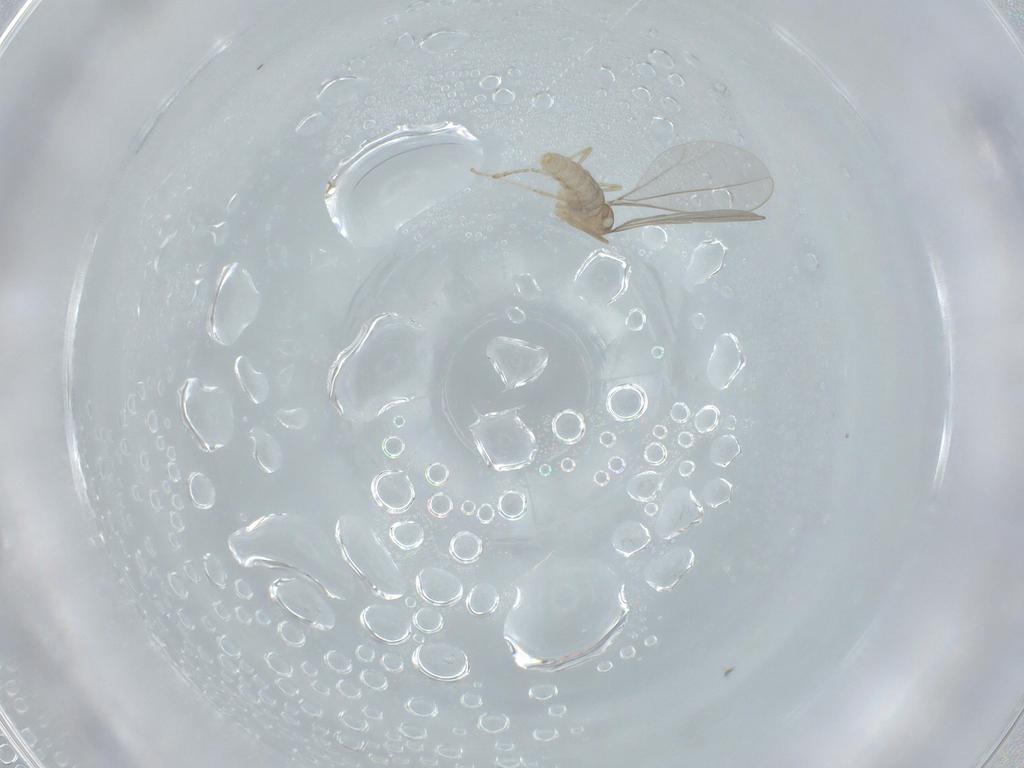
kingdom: Animalia
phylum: Arthropoda
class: Insecta
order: Diptera
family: Cecidomyiidae
